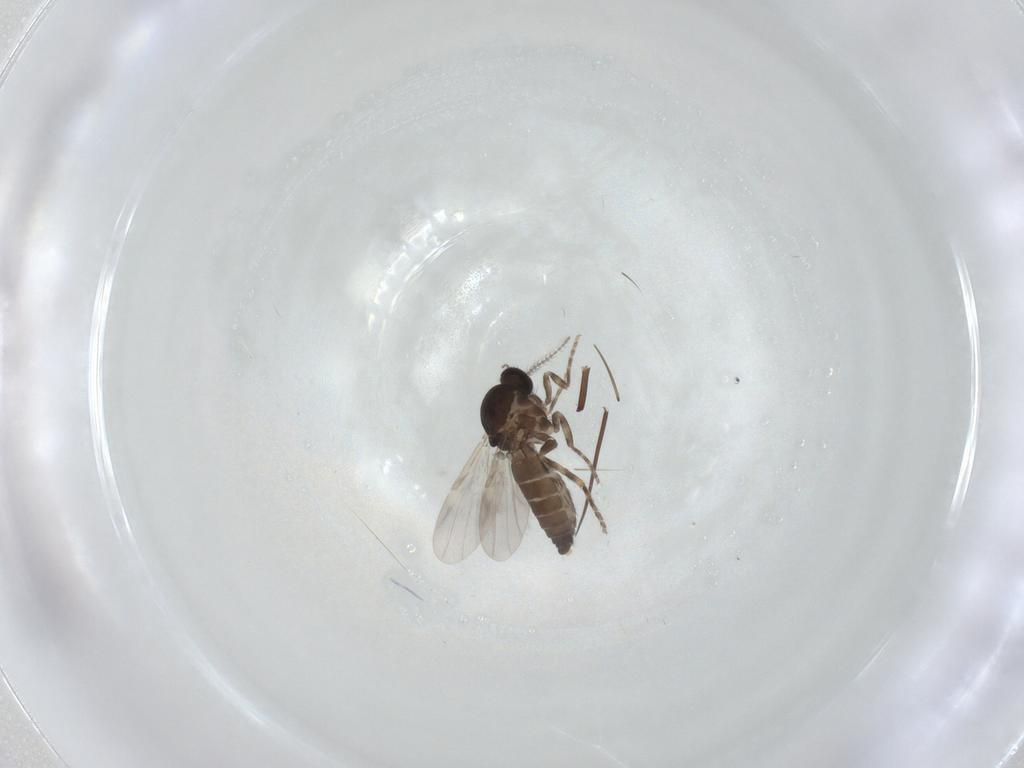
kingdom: Animalia
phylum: Arthropoda
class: Insecta
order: Diptera
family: Ceratopogonidae
